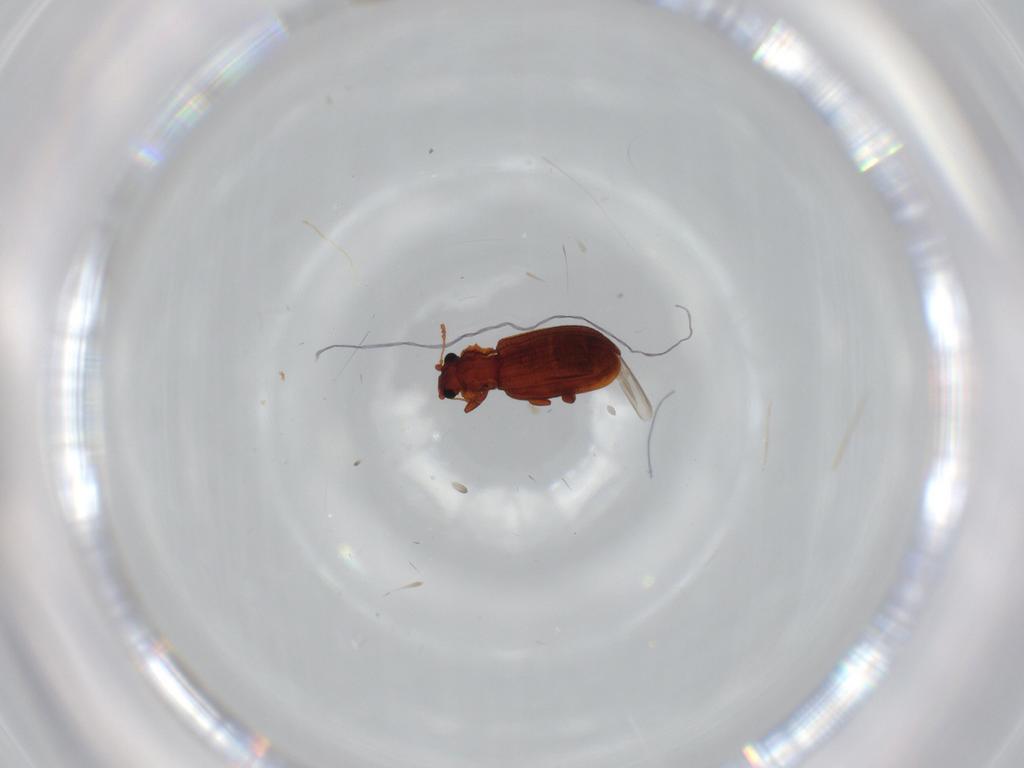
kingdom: Animalia
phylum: Arthropoda
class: Insecta
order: Coleoptera
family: Latridiidae
